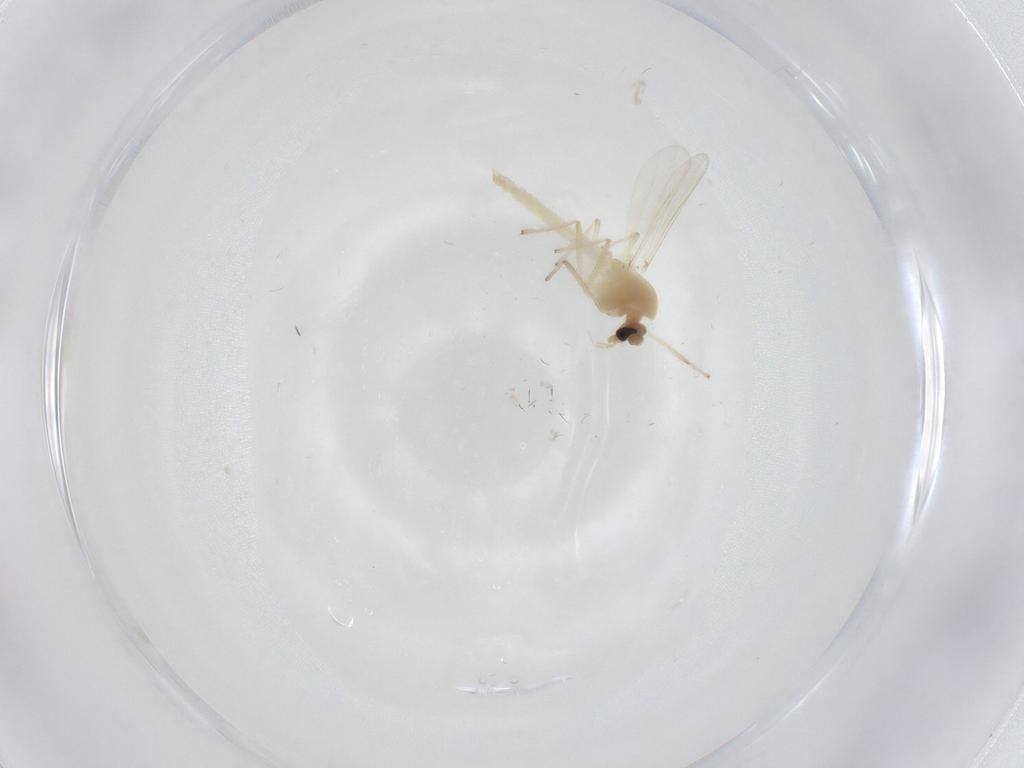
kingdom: Animalia
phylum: Arthropoda
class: Insecta
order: Diptera
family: Chironomidae
